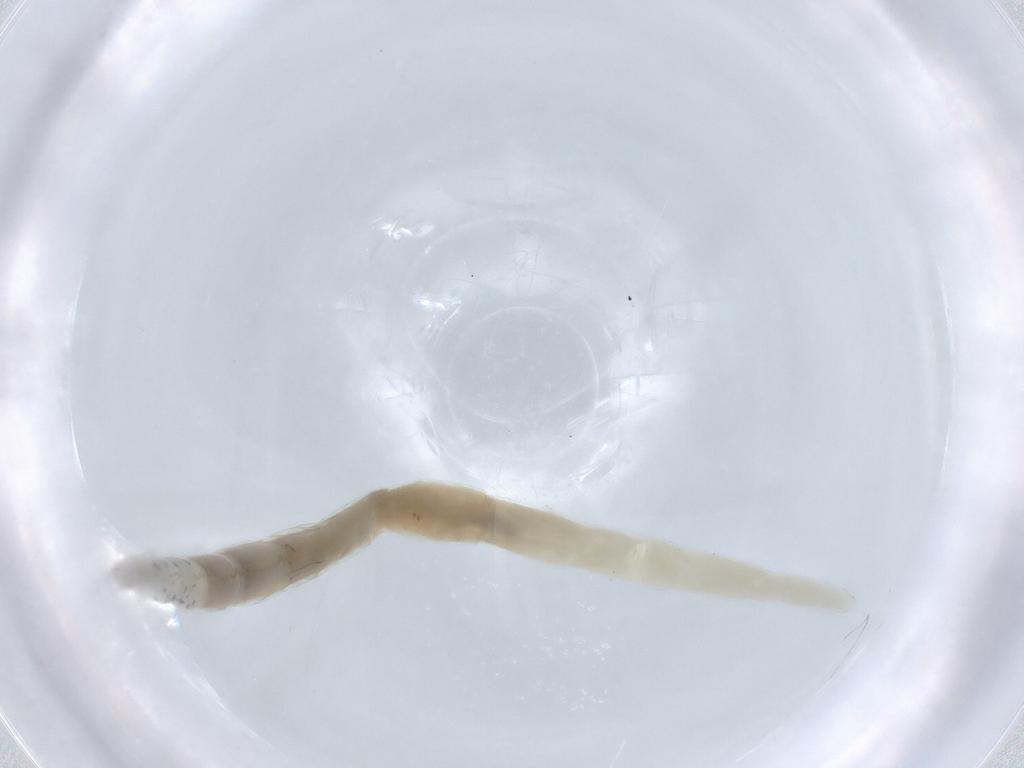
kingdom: Animalia
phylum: Arthropoda
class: Insecta
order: Diptera
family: Ceratopogonidae
